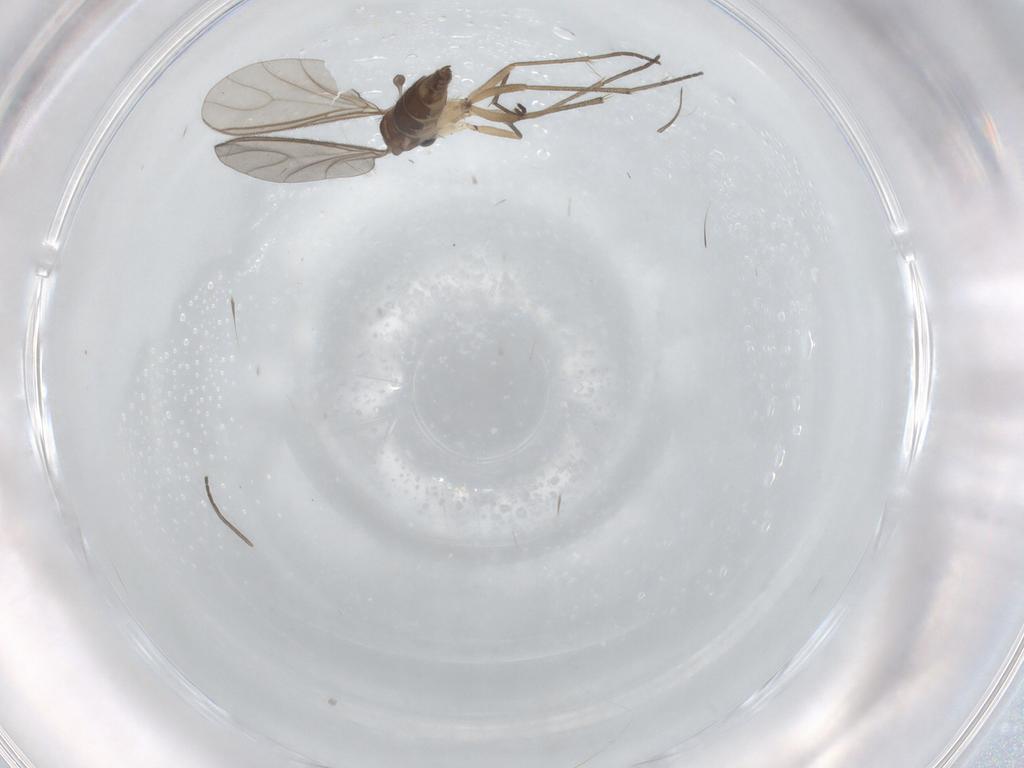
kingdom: Animalia
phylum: Arthropoda
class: Insecta
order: Diptera
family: Sciaridae
